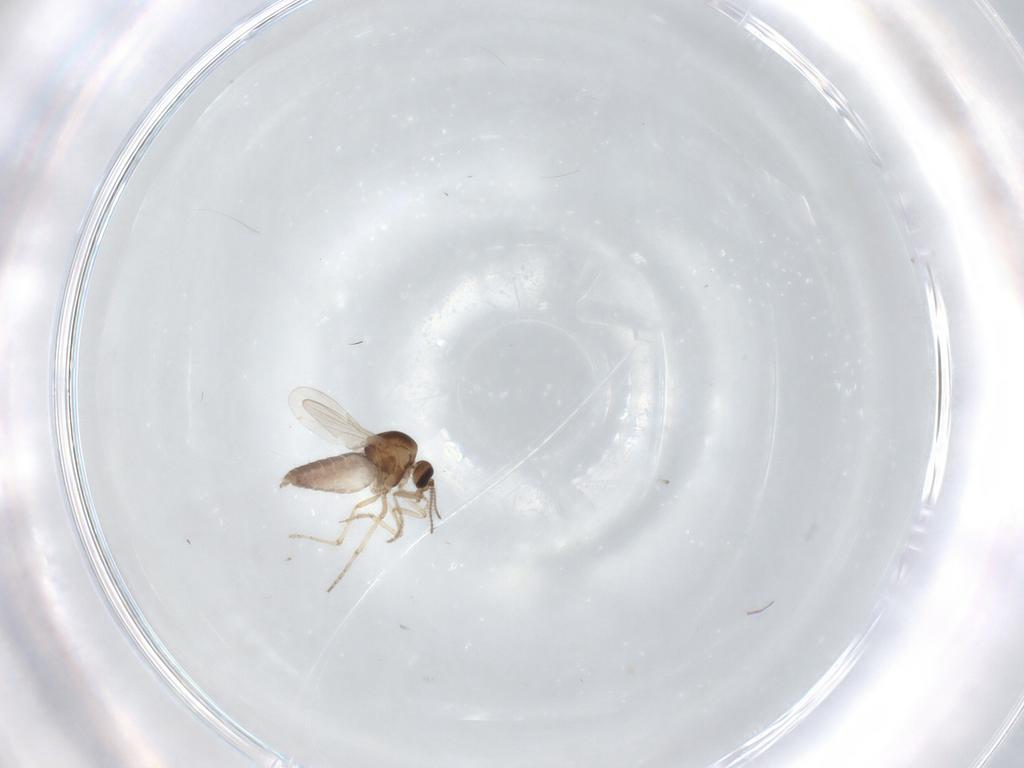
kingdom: Animalia
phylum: Arthropoda
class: Insecta
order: Diptera
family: Ceratopogonidae
